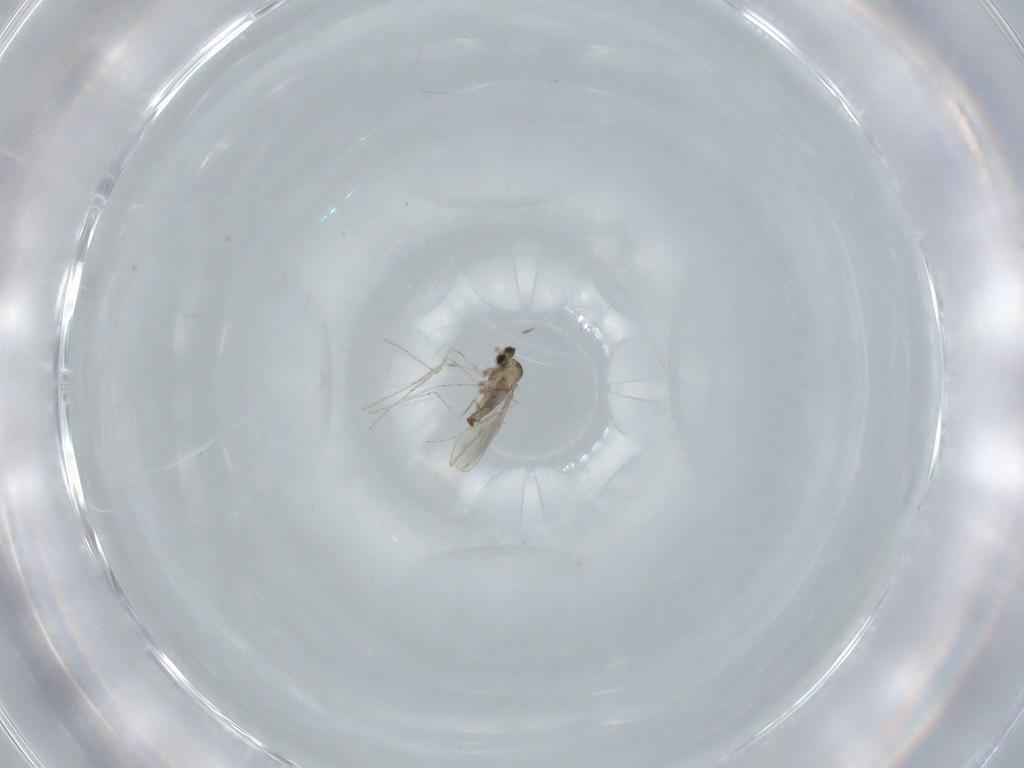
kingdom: Animalia
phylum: Arthropoda
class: Insecta
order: Diptera
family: Cecidomyiidae
